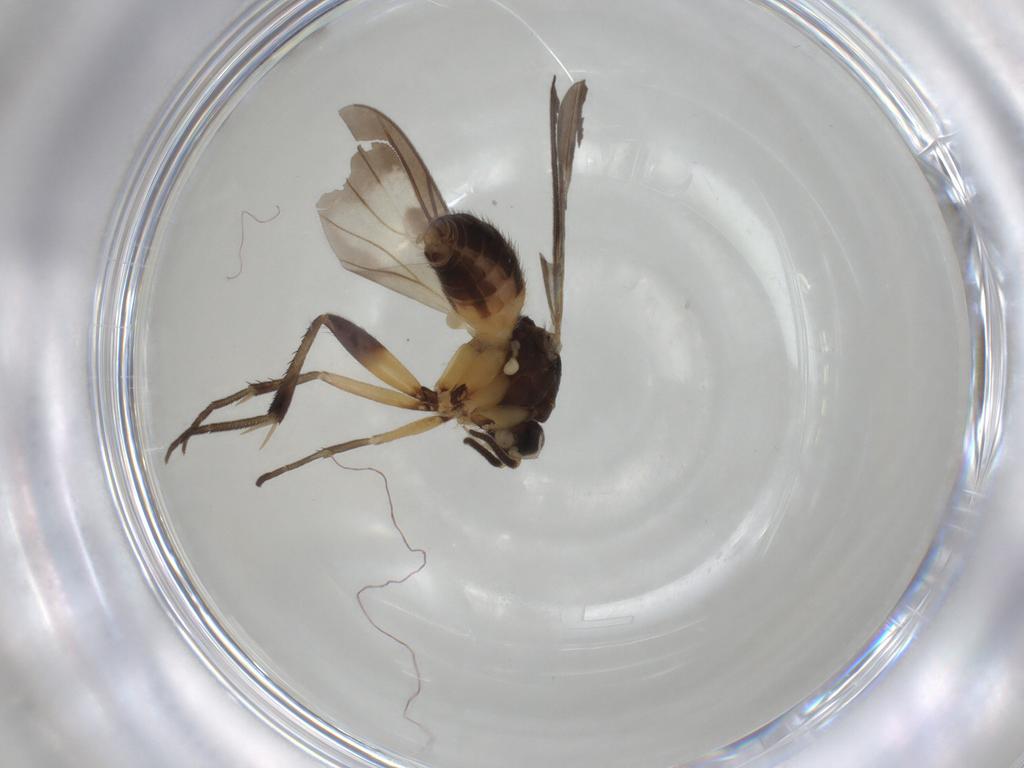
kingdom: Animalia
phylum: Arthropoda
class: Insecta
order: Diptera
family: Mycetophilidae
